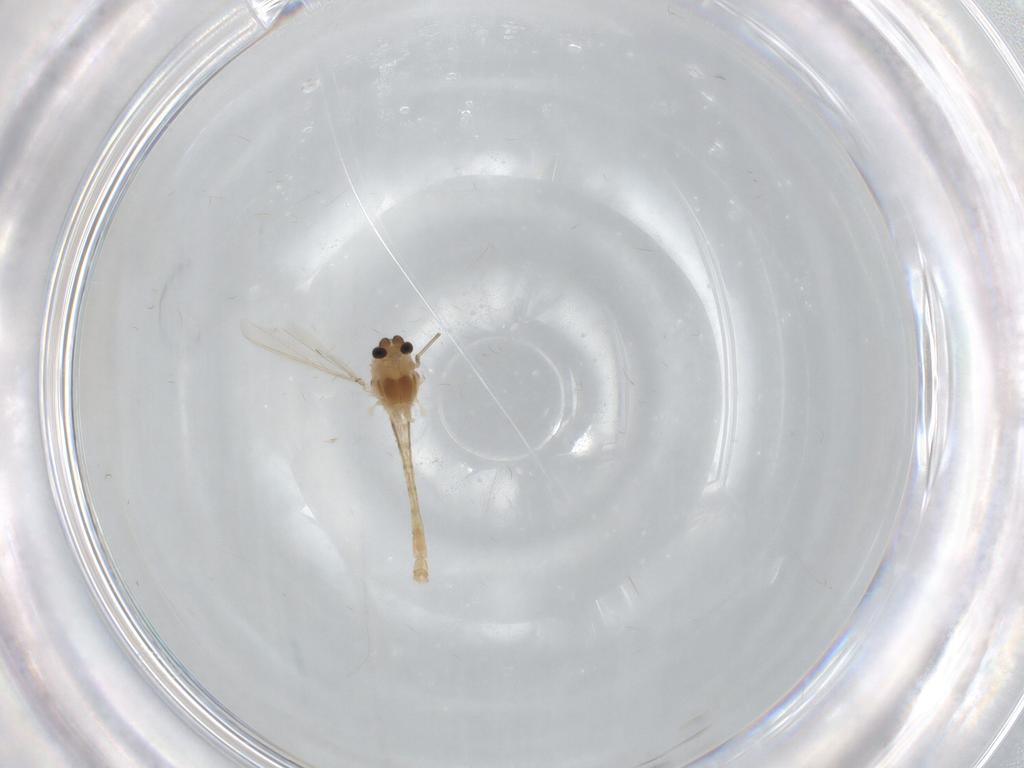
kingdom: Animalia
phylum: Arthropoda
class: Insecta
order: Diptera
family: Chironomidae
